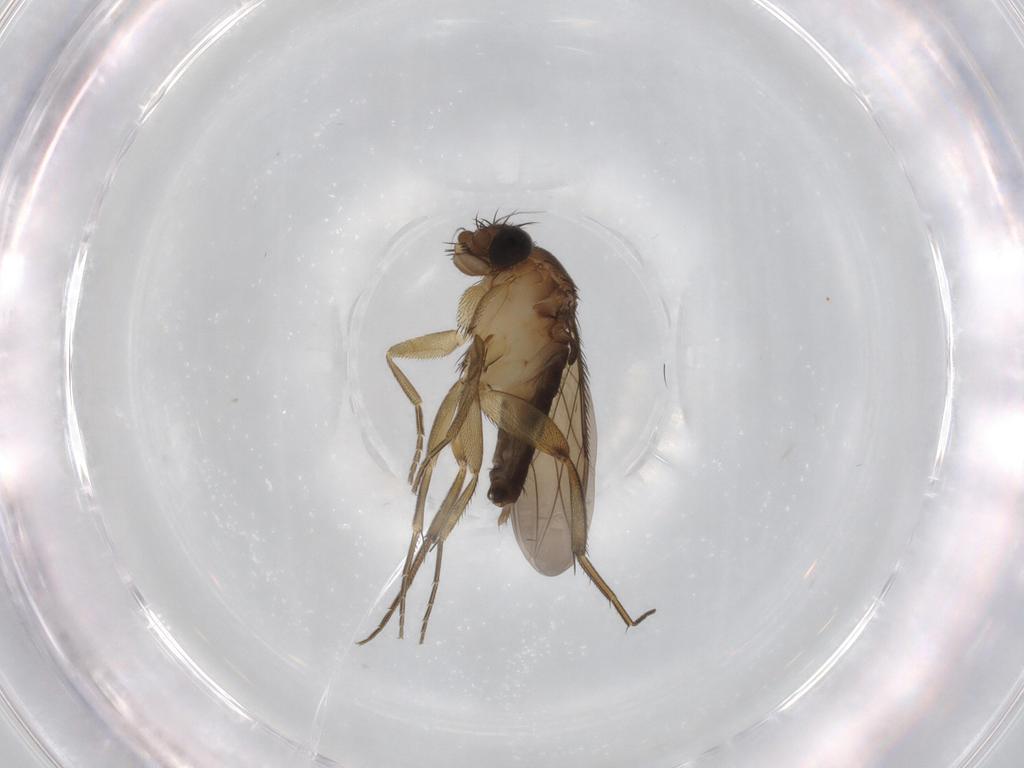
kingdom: Animalia
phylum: Arthropoda
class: Insecta
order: Diptera
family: Phoridae
